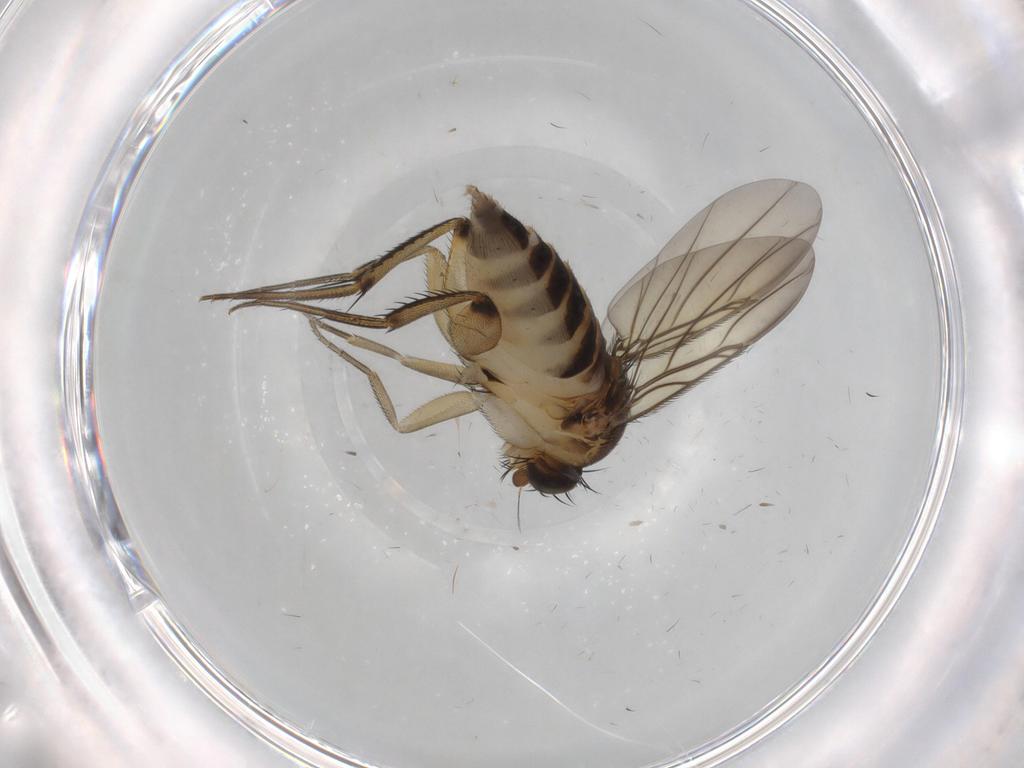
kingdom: Animalia
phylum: Arthropoda
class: Insecta
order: Diptera
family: Chironomidae
